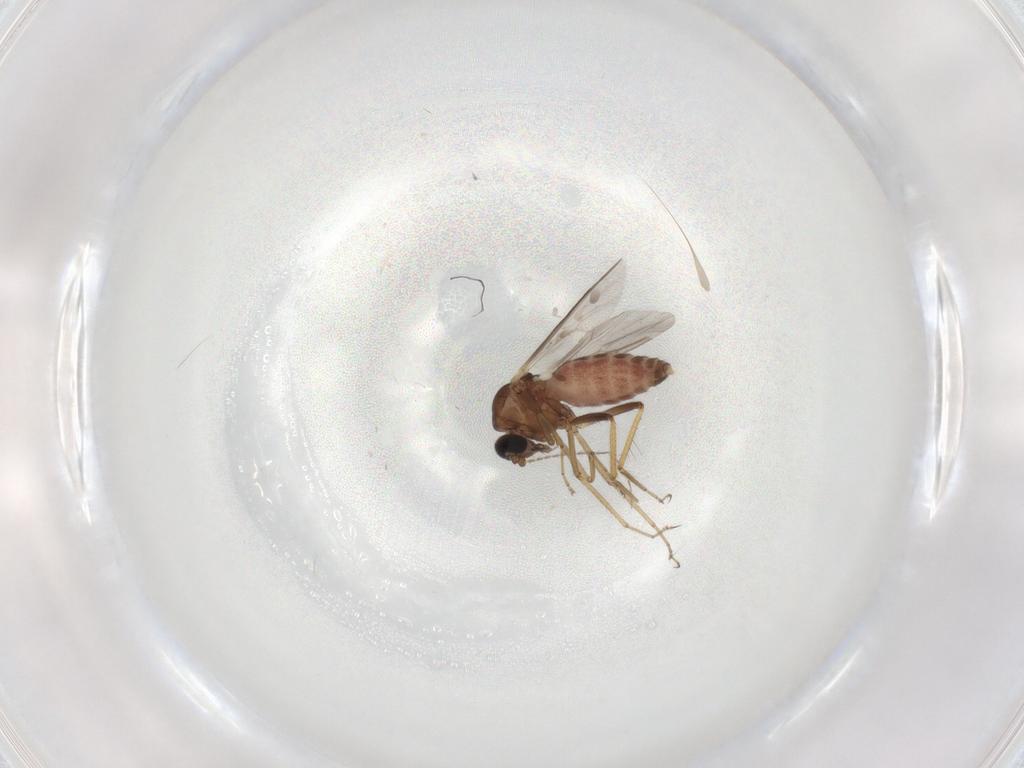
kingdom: Animalia
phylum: Arthropoda
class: Insecta
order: Diptera
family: Ceratopogonidae
